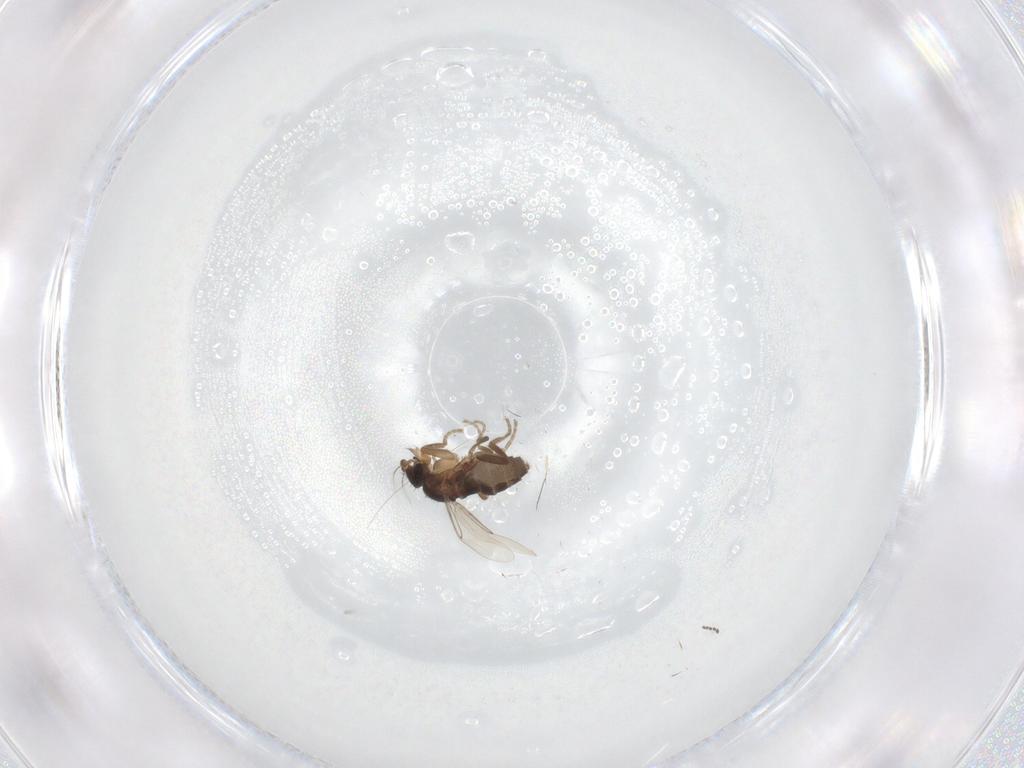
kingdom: Animalia
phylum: Arthropoda
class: Insecta
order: Diptera
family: Phoridae
